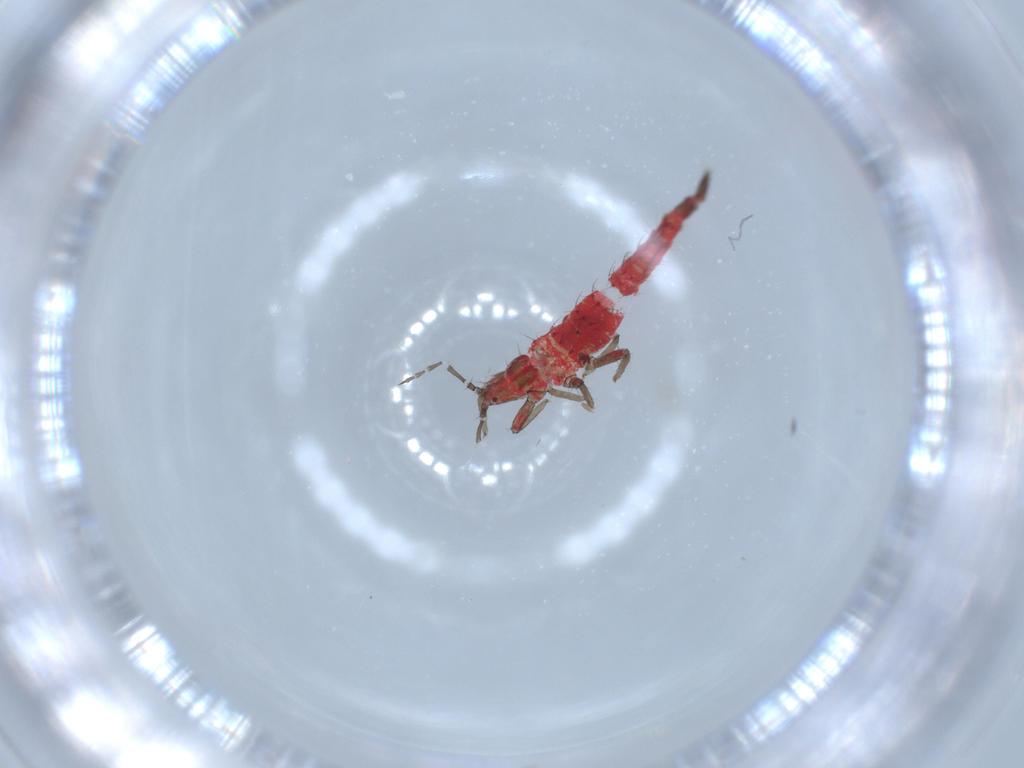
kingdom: Animalia
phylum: Arthropoda
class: Insecta
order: Thysanoptera
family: Phlaeothripidae
